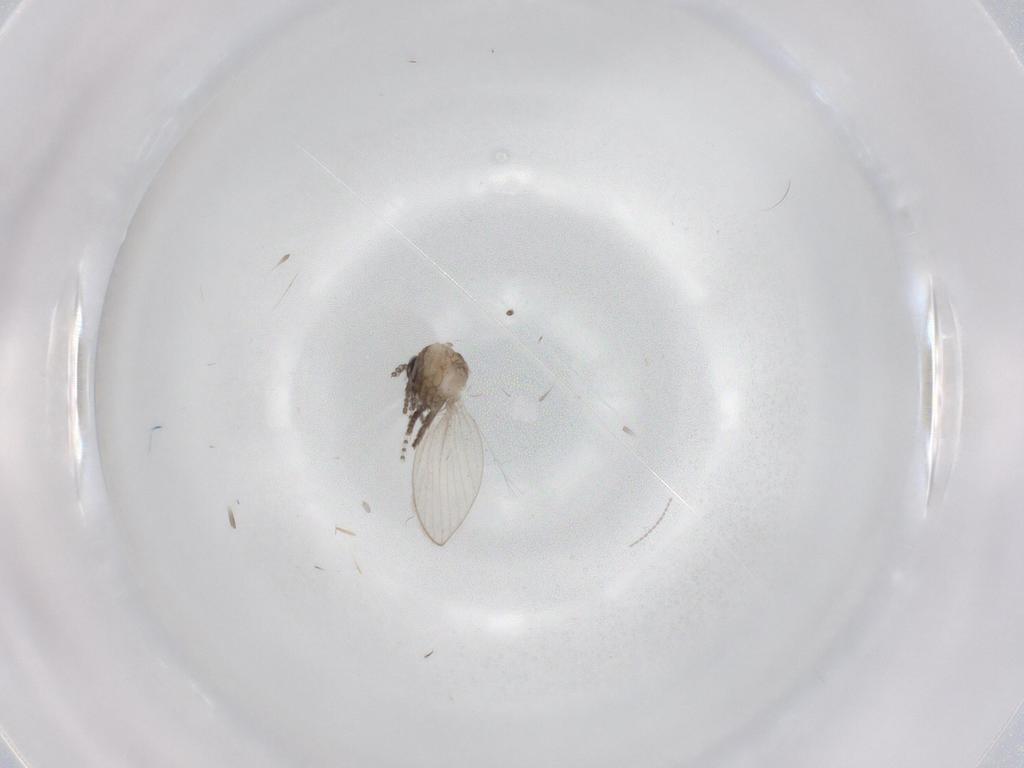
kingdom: Animalia
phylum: Arthropoda
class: Insecta
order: Diptera
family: Psychodidae
